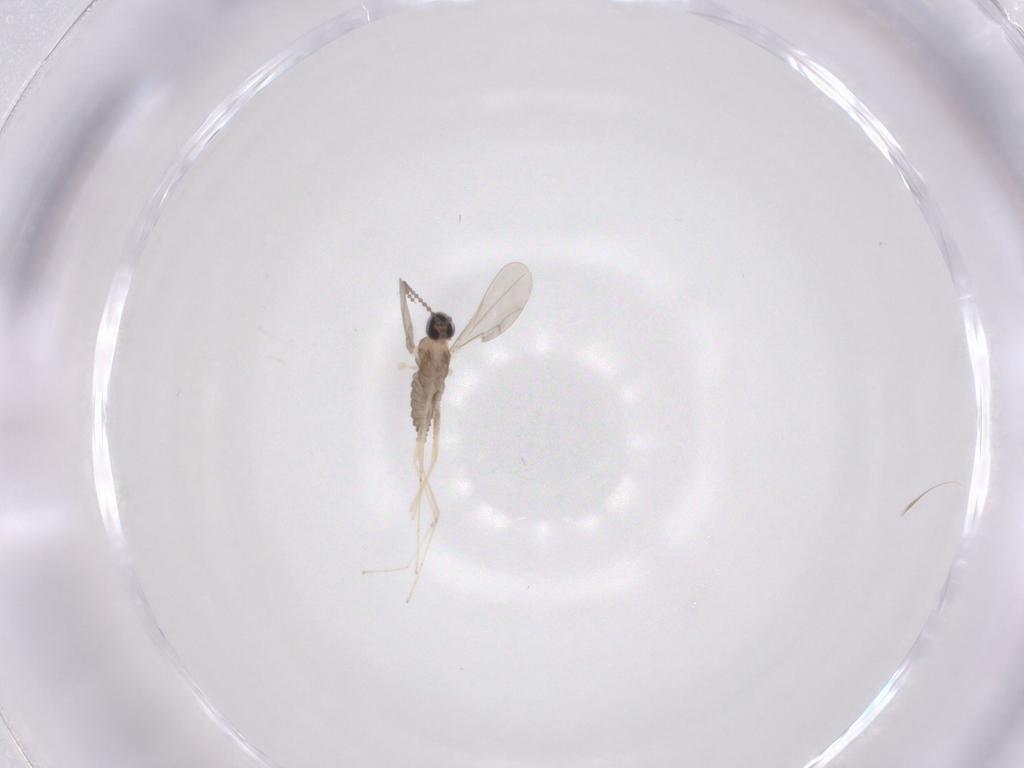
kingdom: Animalia
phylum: Arthropoda
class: Insecta
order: Diptera
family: Cecidomyiidae
